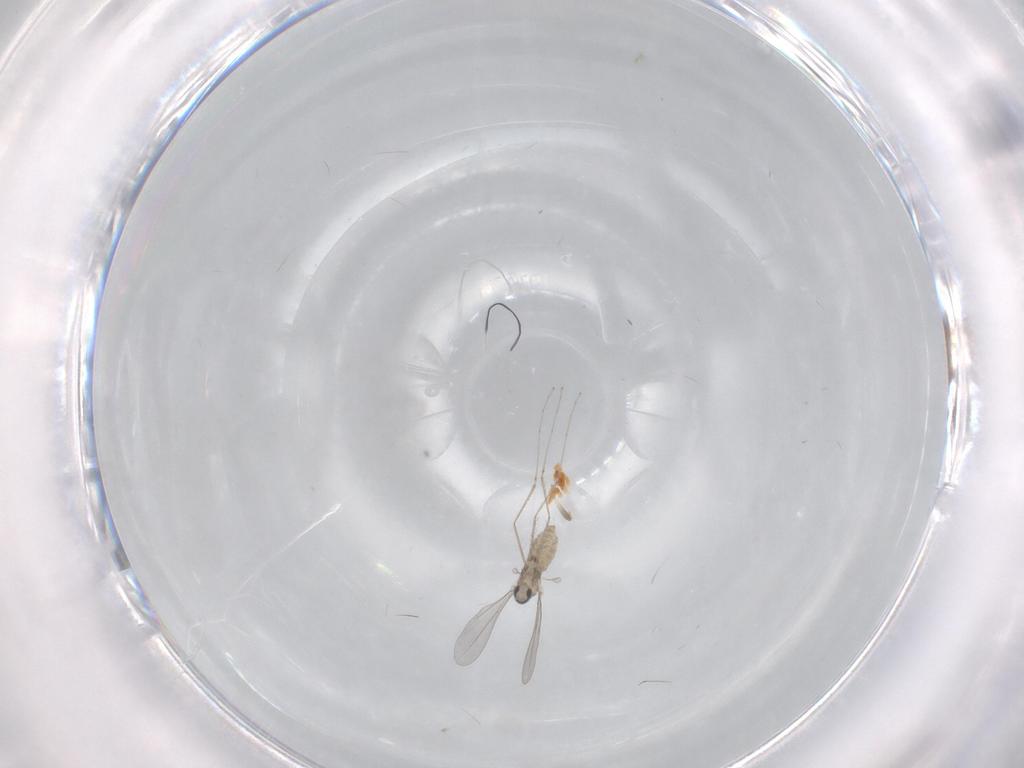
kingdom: Animalia
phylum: Arthropoda
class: Insecta
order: Diptera
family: Cecidomyiidae
